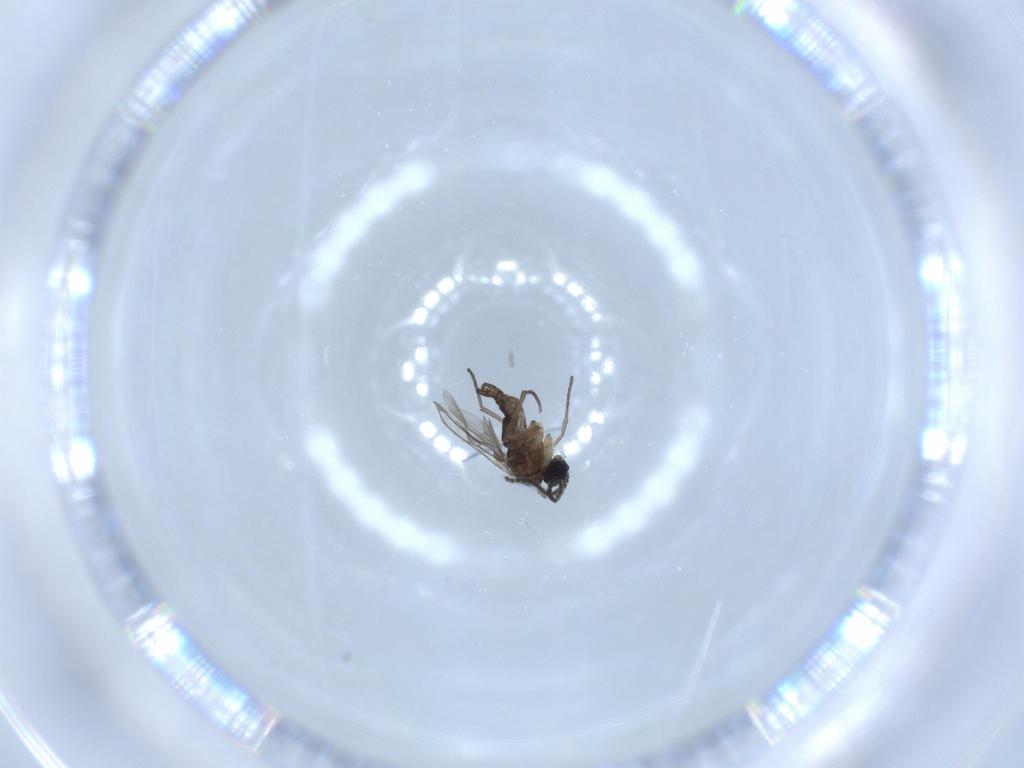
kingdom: Animalia
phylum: Arthropoda
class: Insecta
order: Diptera
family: Sciaridae
